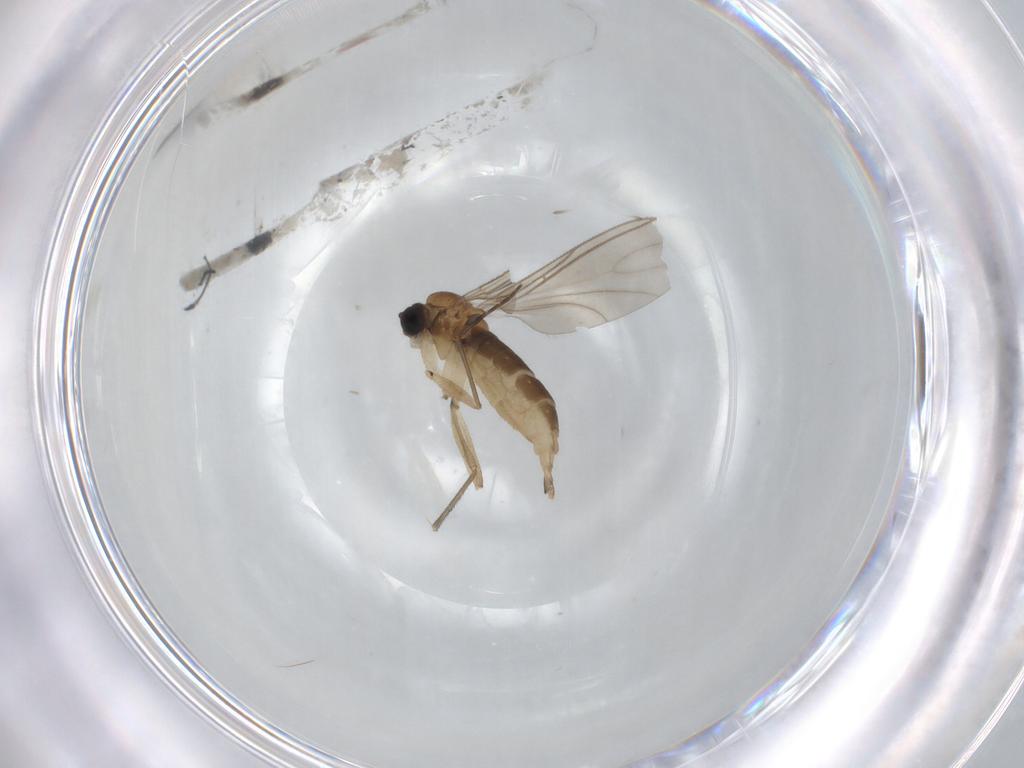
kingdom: Animalia
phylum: Arthropoda
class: Insecta
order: Diptera
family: Sciaridae
